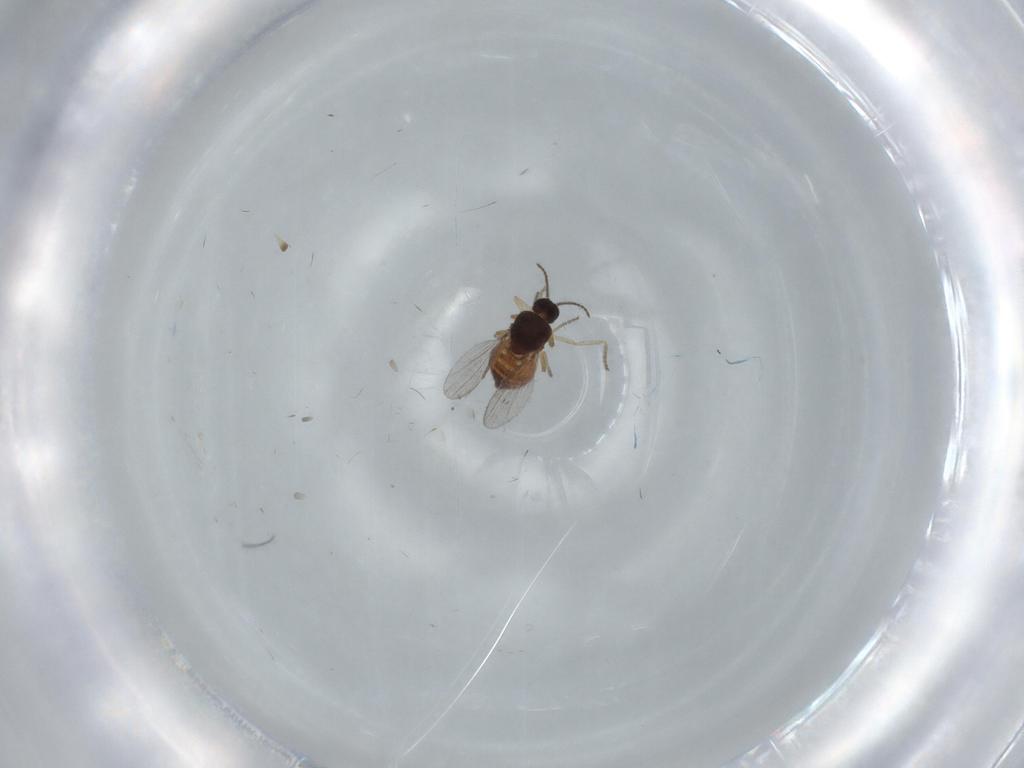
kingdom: Animalia
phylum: Arthropoda
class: Insecta
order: Diptera
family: Ceratopogonidae
